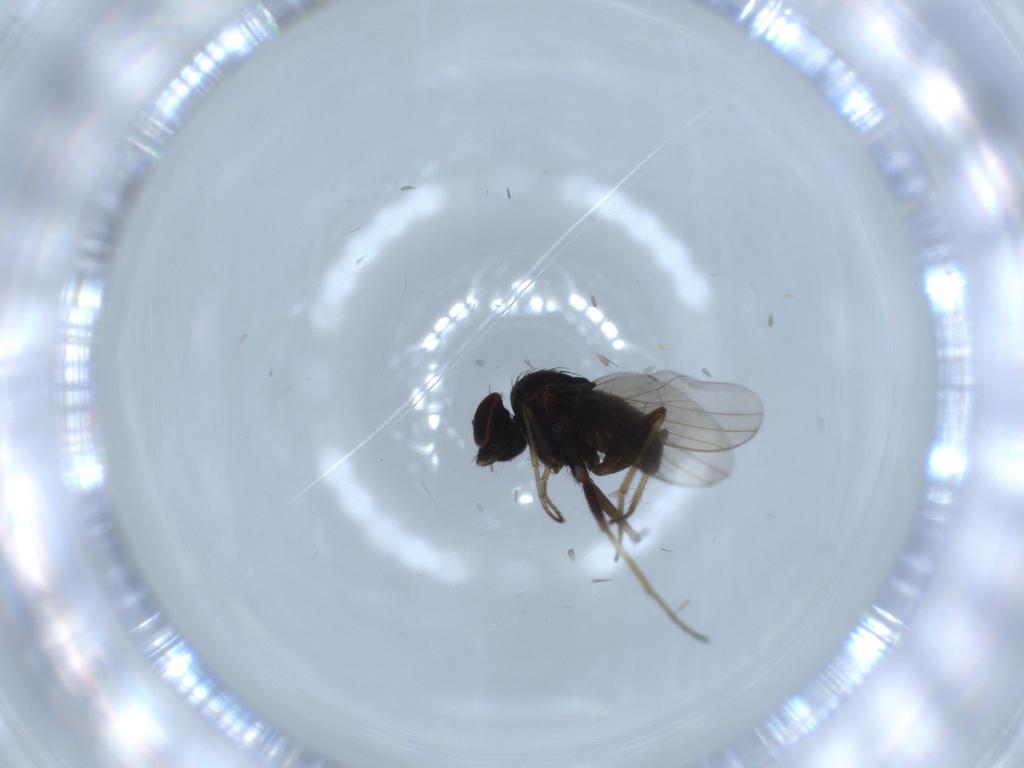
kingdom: Animalia
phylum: Arthropoda
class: Insecta
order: Diptera
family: Dolichopodidae
